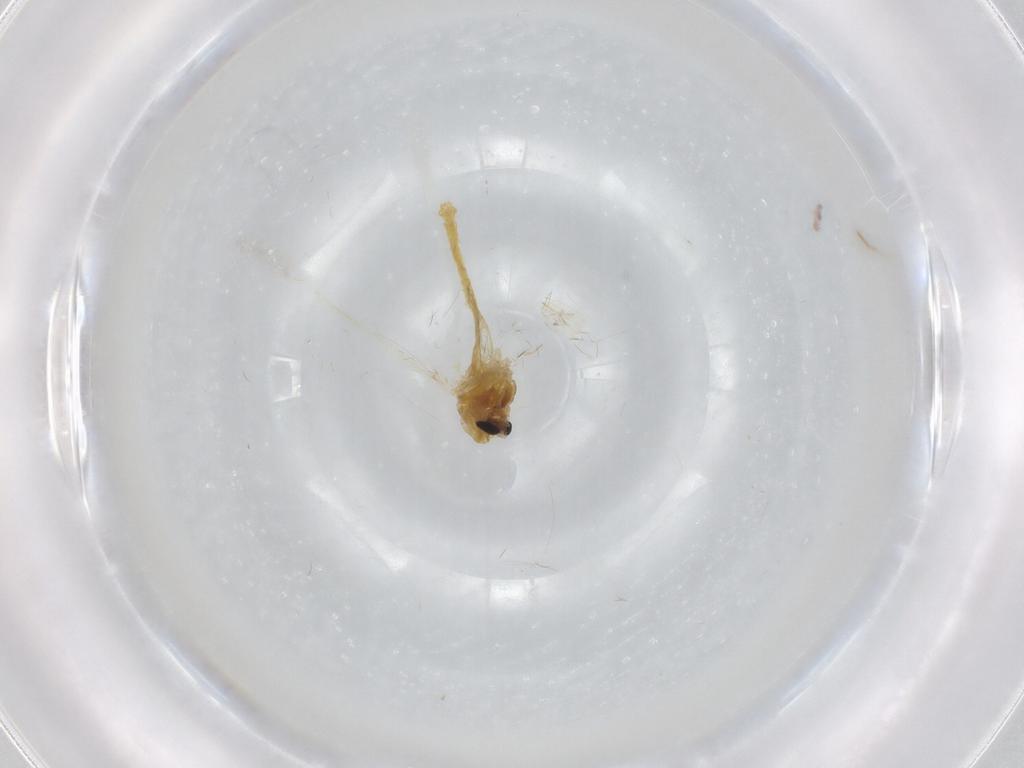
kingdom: Animalia
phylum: Arthropoda
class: Insecta
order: Diptera
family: Chironomidae
